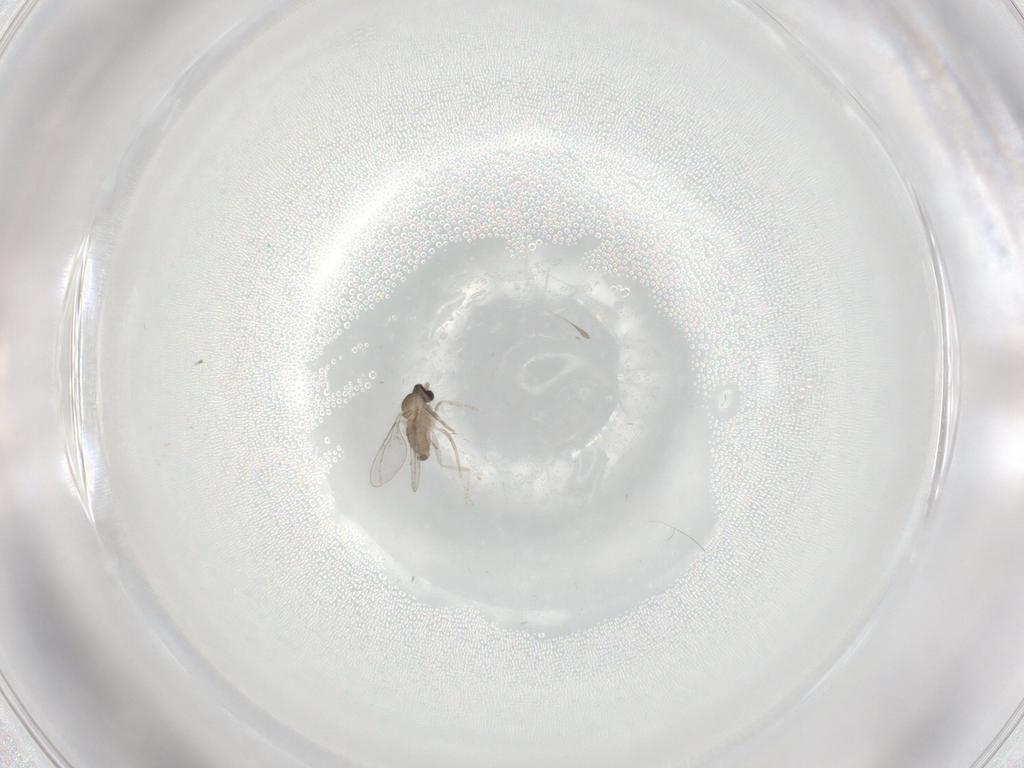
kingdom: Animalia
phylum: Arthropoda
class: Insecta
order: Diptera
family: Cecidomyiidae
